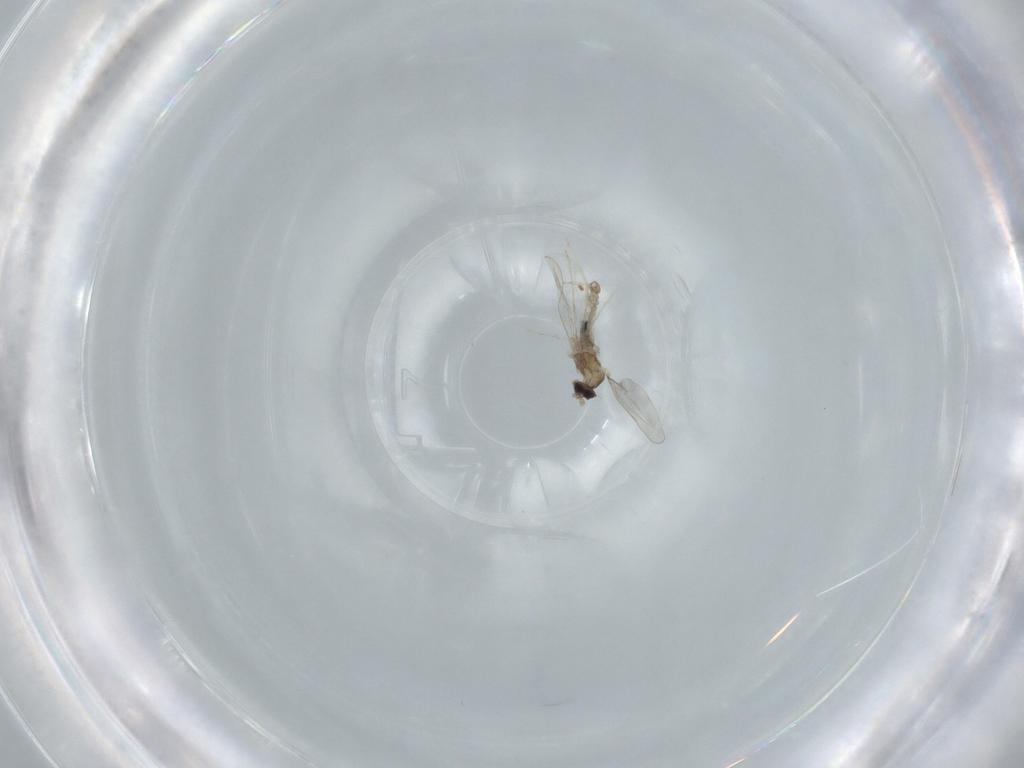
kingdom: Animalia
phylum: Arthropoda
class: Insecta
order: Diptera
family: Cecidomyiidae
